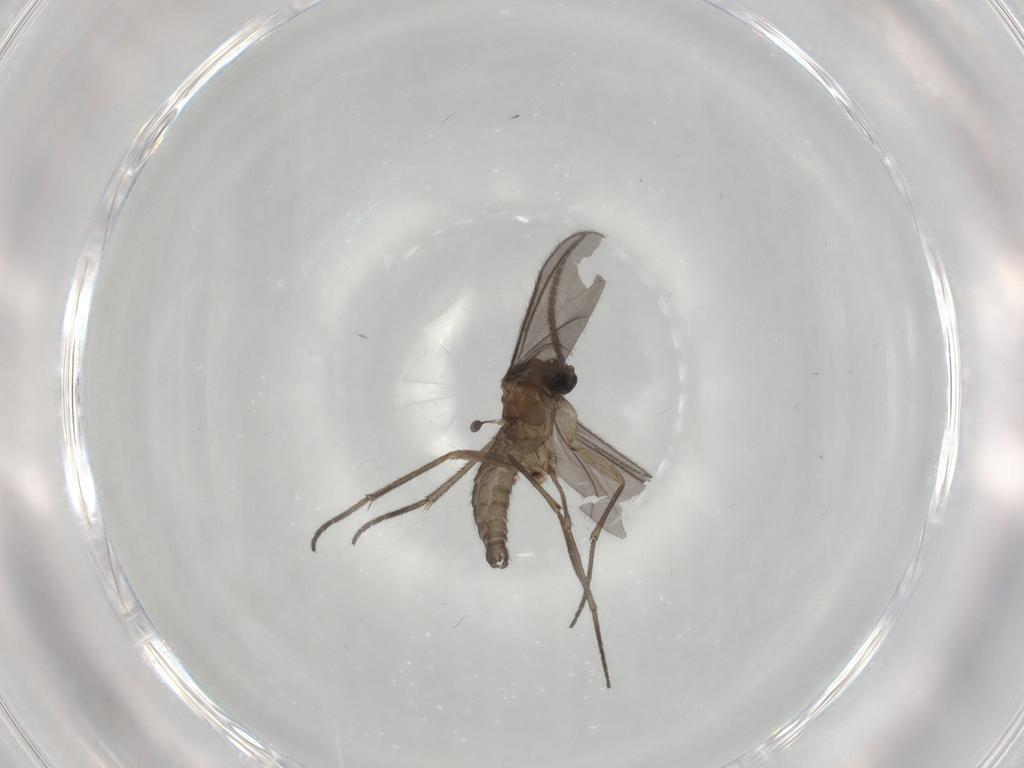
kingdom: Animalia
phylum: Arthropoda
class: Insecta
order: Diptera
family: Sciaridae
